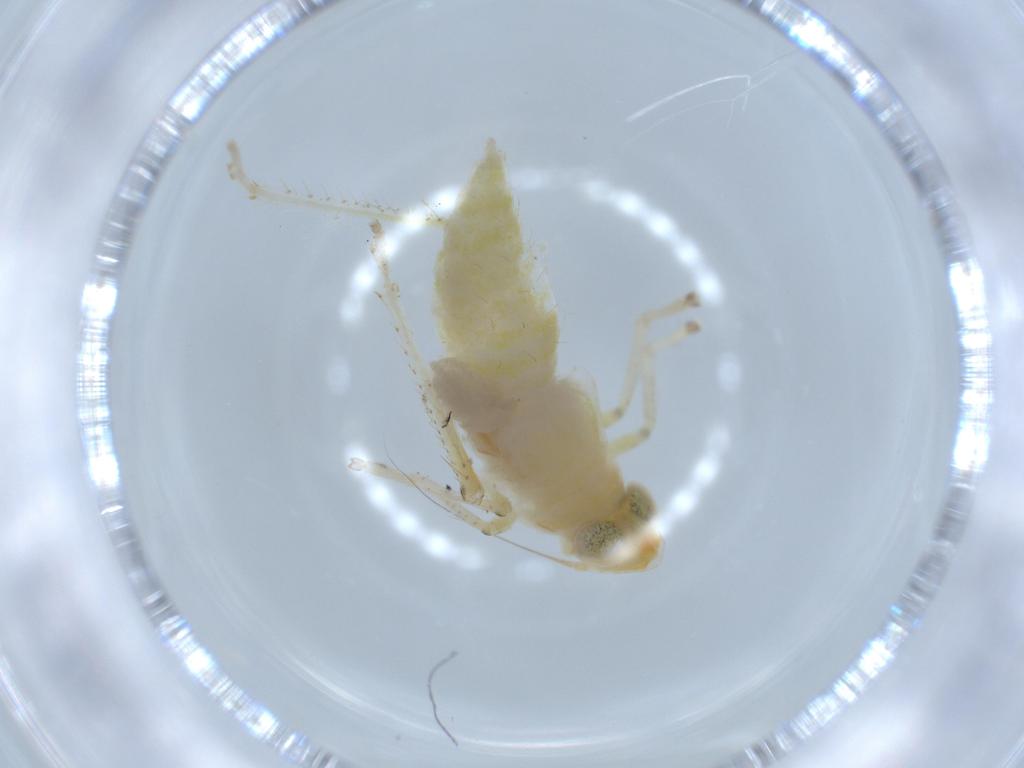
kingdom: Animalia
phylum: Arthropoda
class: Insecta
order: Hemiptera
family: Cicadellidae
